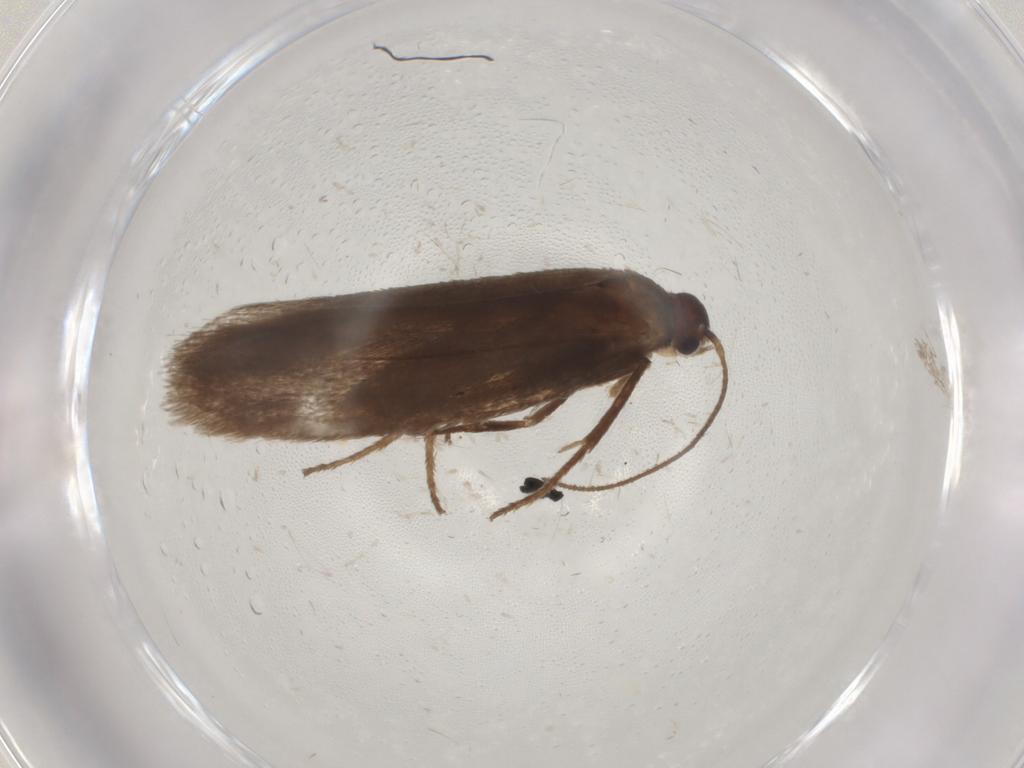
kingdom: Animalia
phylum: Arthropoda
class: Insecta
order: Lepidoptera
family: Limacodidae
